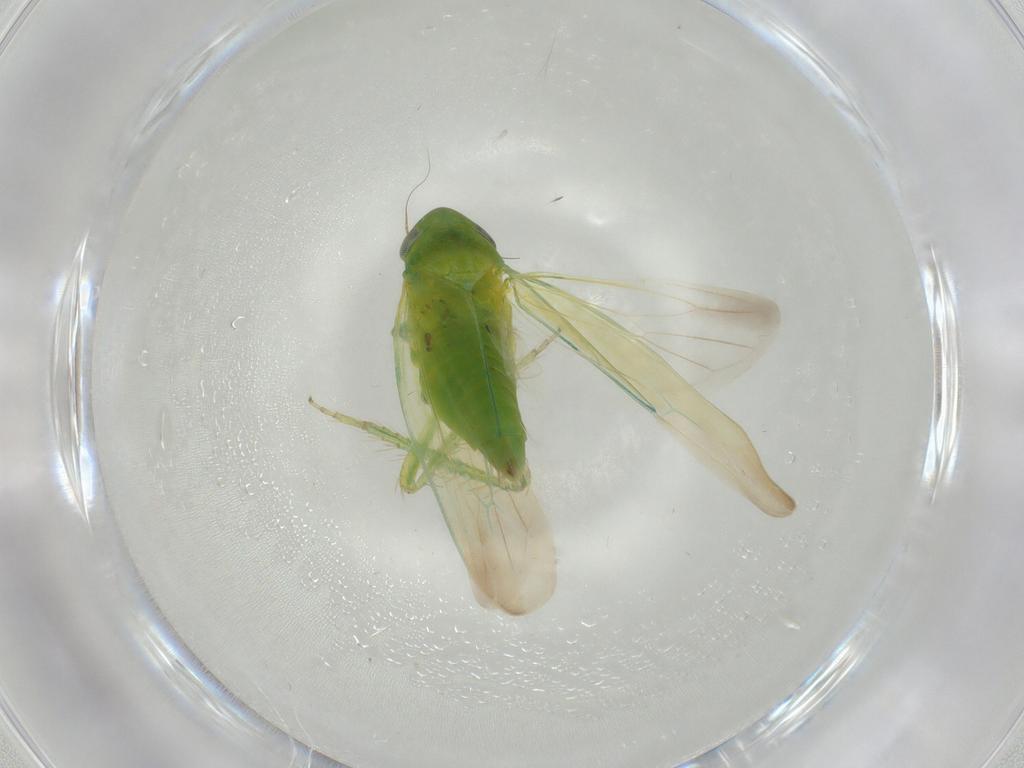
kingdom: Animalia
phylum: Arthropoda
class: Insecta
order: Hemiptera
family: Cicadellidae
